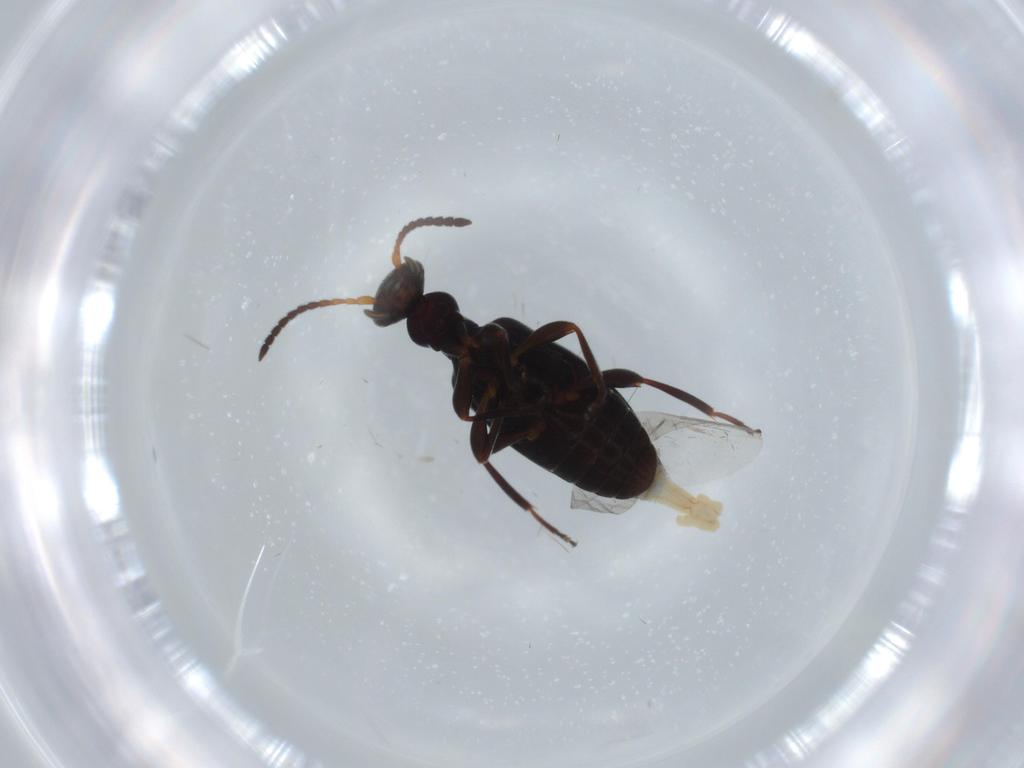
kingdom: Animalia
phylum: Arthropoda
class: Insecta
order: Coleoptera
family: Anthicidae
